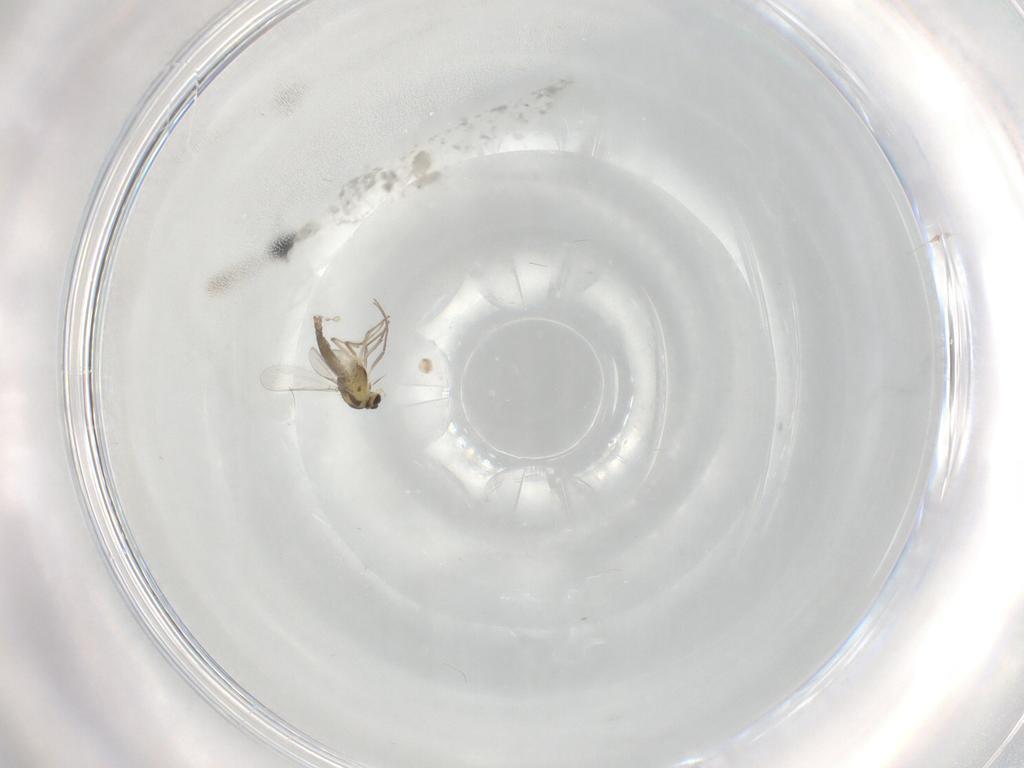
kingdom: Animalia
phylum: Arthropoda
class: Insecta
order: Diptera
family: Chironomidae
